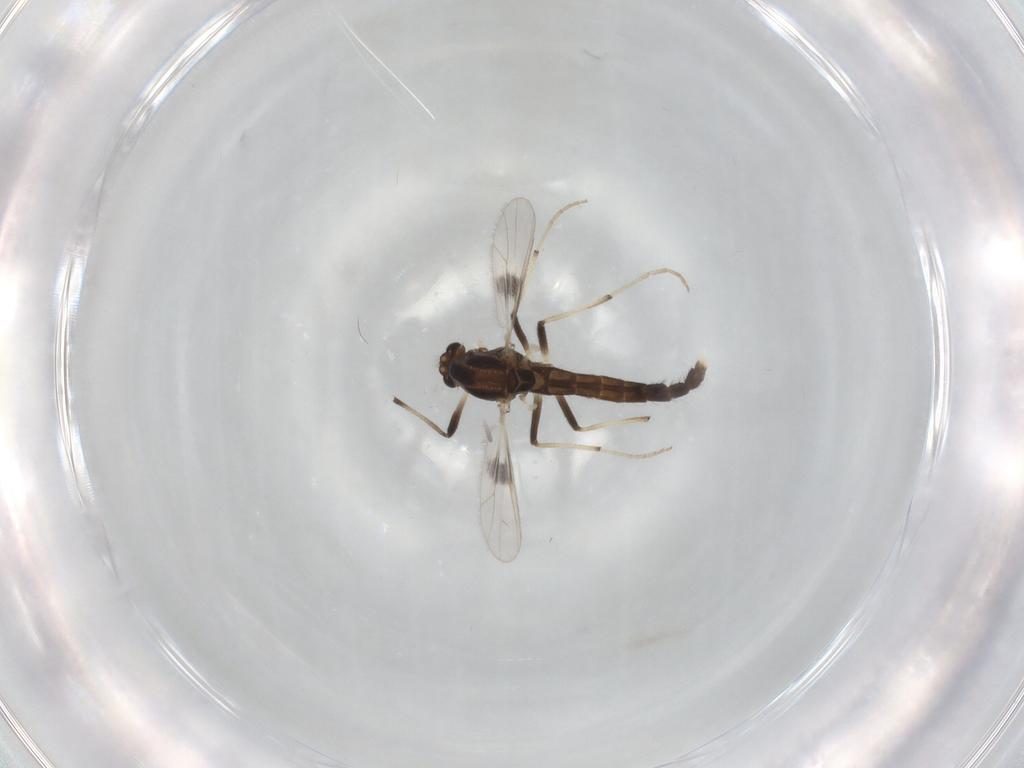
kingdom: Animalia
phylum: Arthropoda
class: Insecta
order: Diptera
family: Chironomidae
